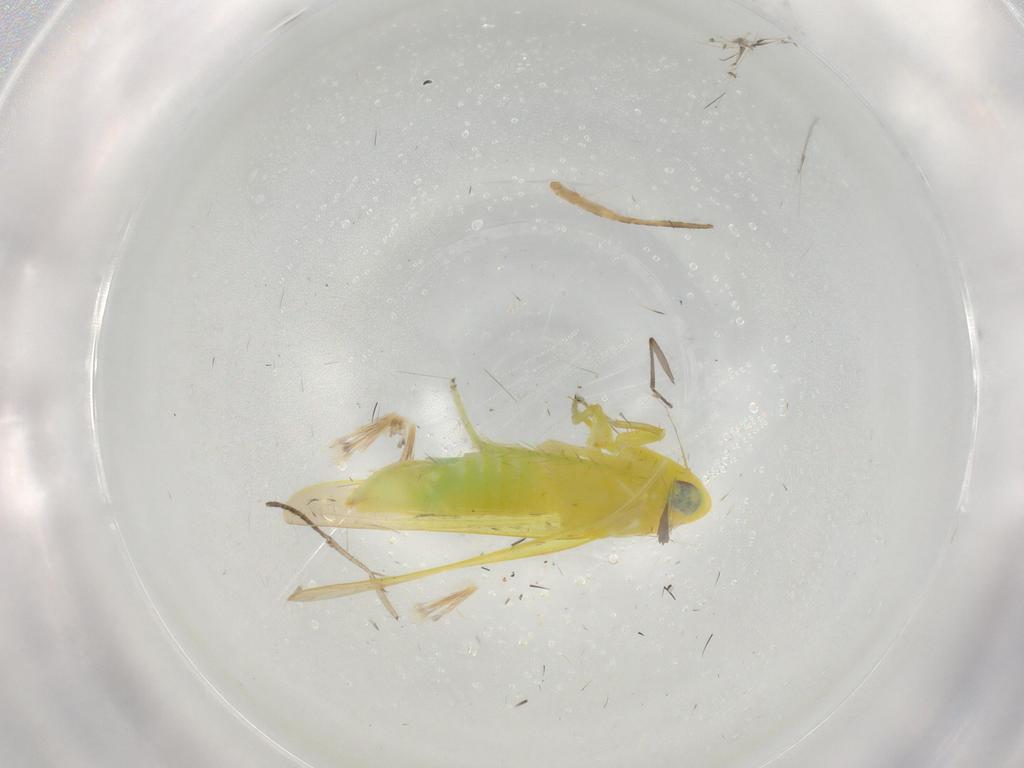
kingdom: Animalia
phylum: Arthropoda
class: Insecta
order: Hemiptera
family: Cicadellidae
